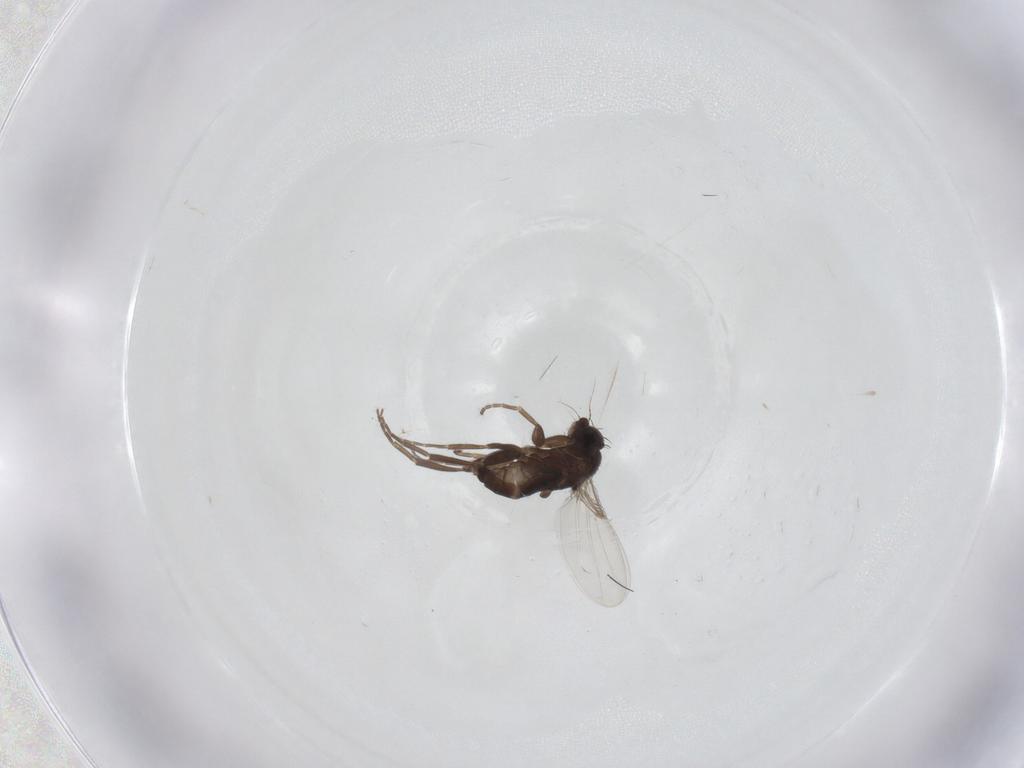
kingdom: Animalia
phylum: Arthropoda
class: Insecta
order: Diptera
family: Phoridae
